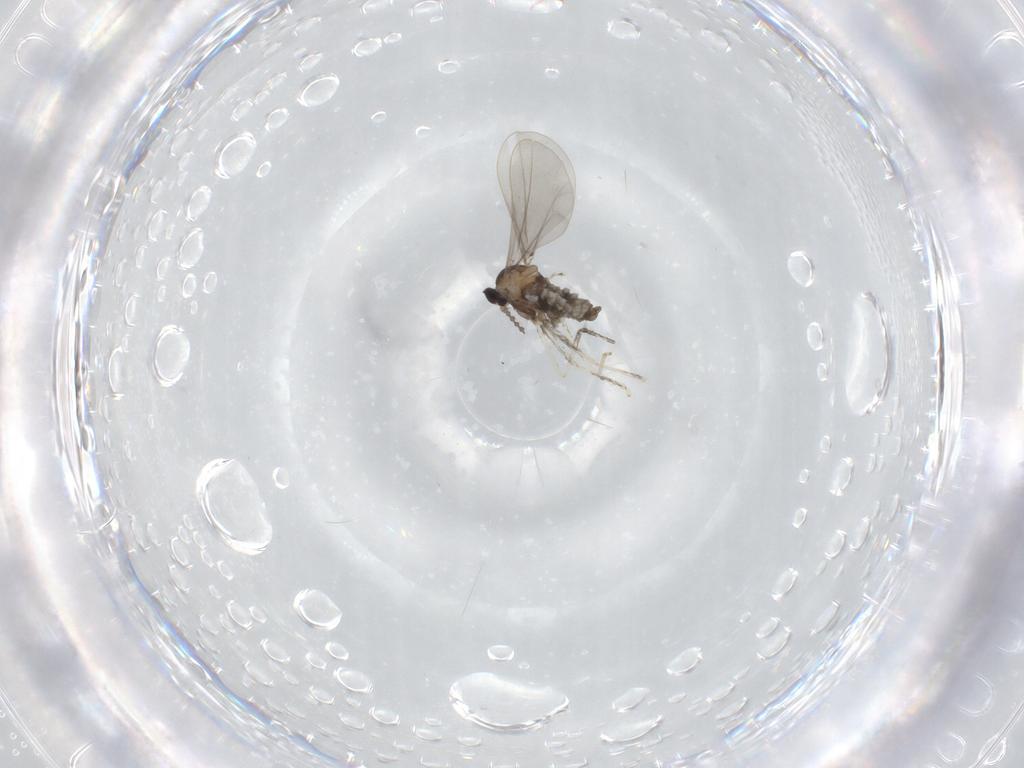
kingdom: Animalia
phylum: Arthropoda
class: Insecta
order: Diptera
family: Cecidomyiidae
